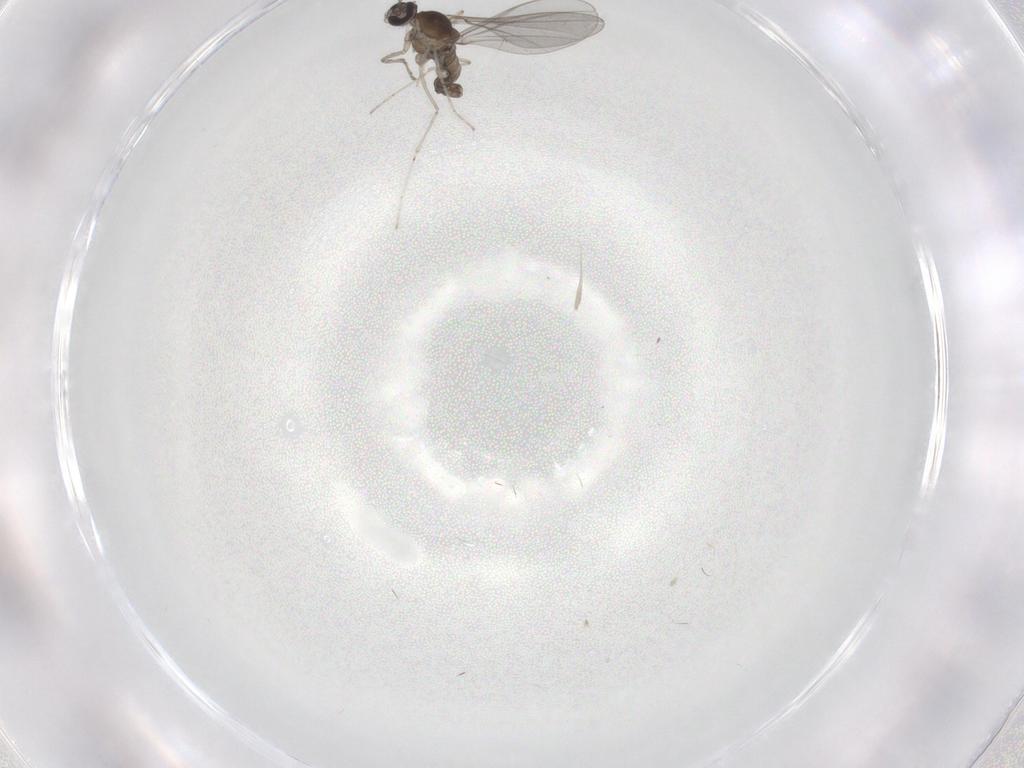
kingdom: Animalia
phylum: Arthropoda
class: Insecta
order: Diptera
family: Cecidomyiidae
